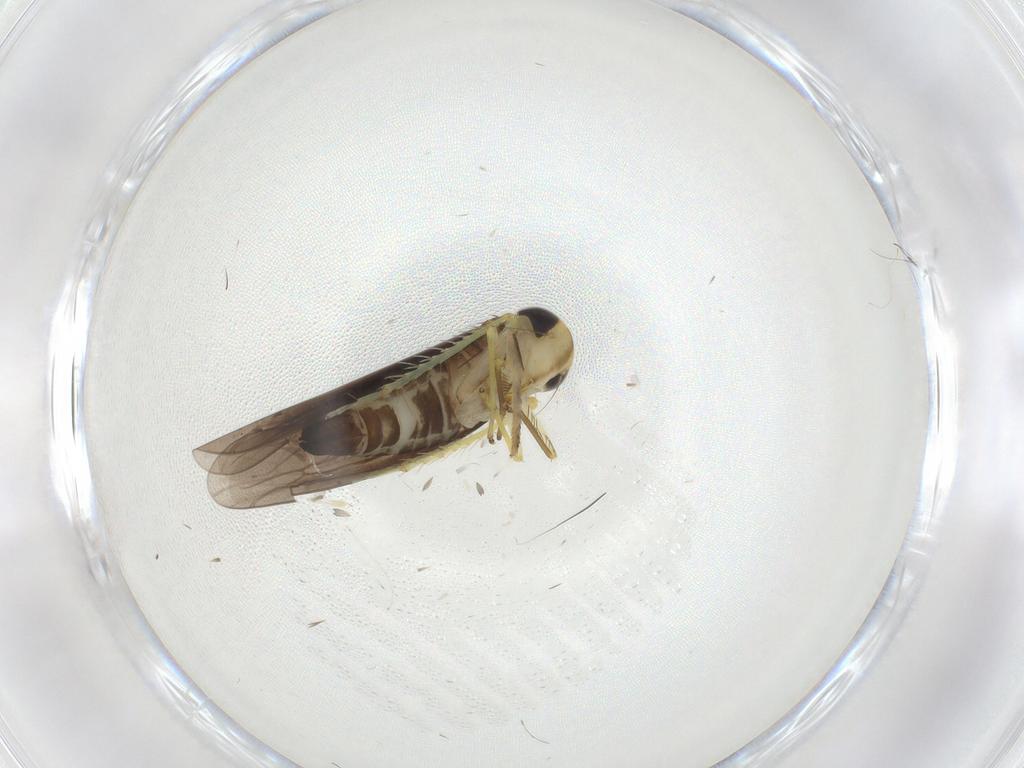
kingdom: Animalia
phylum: Arthropoda
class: Insecta
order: Hemiptera
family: Cicadellidae
